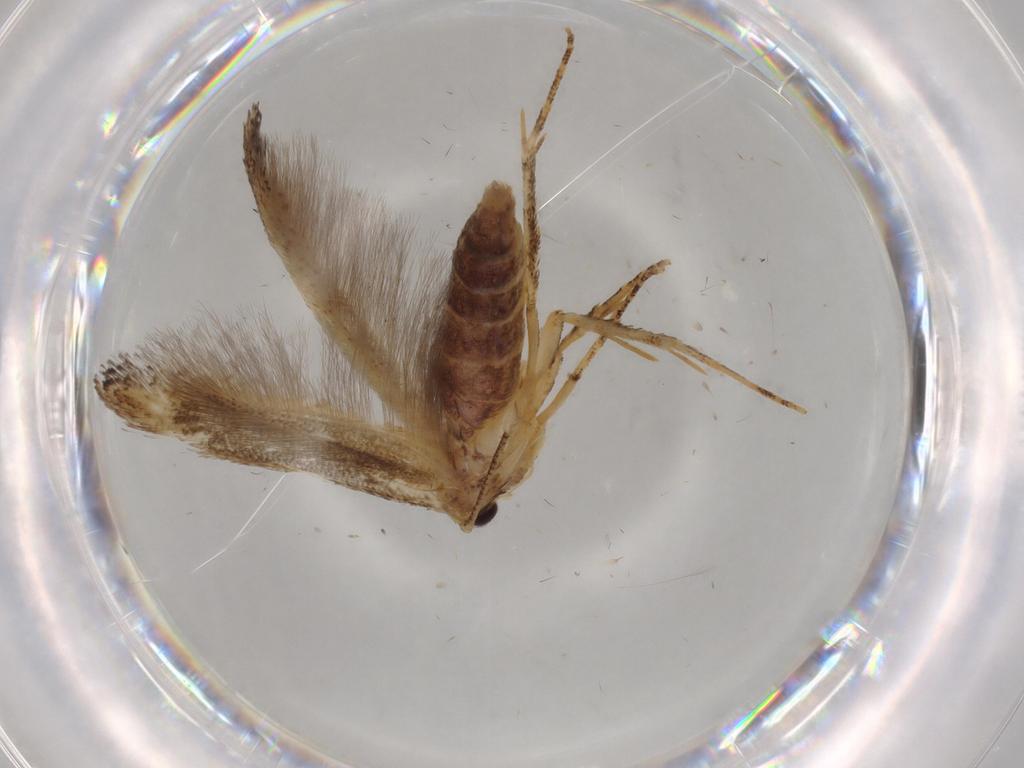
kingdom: Animalia
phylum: Arthropoda
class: Insecta
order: Lepidoptera
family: Elachistidae
